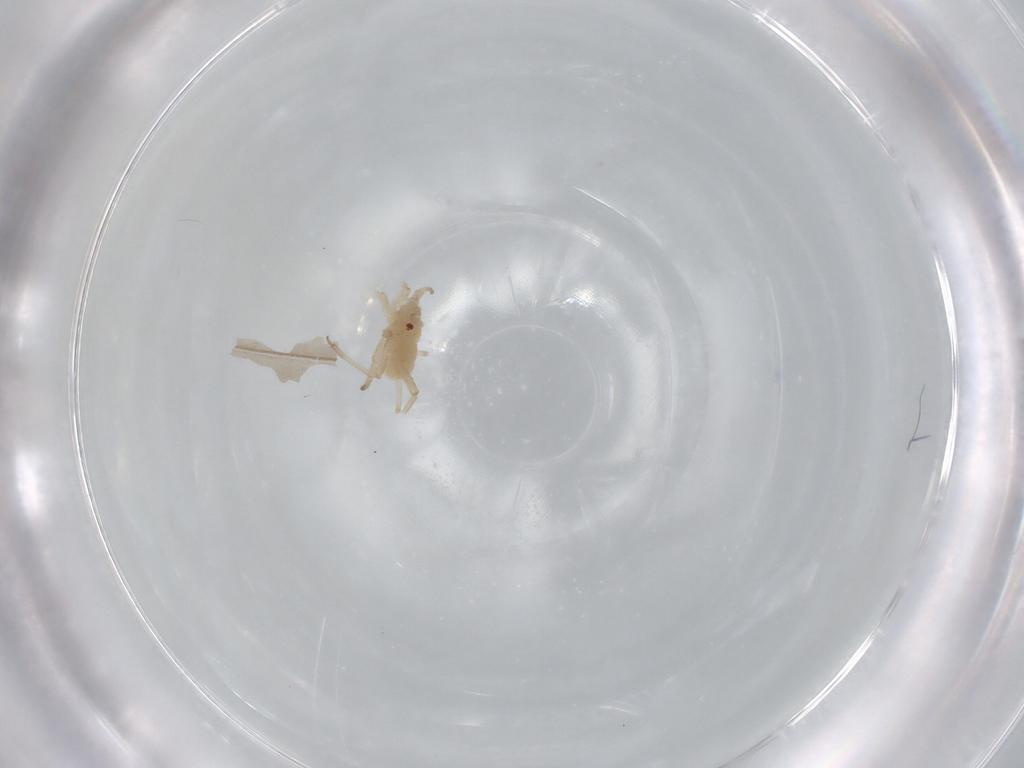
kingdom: Animalia
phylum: Arthropoda
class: Insecta
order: Hemiptera
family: Aphididae
